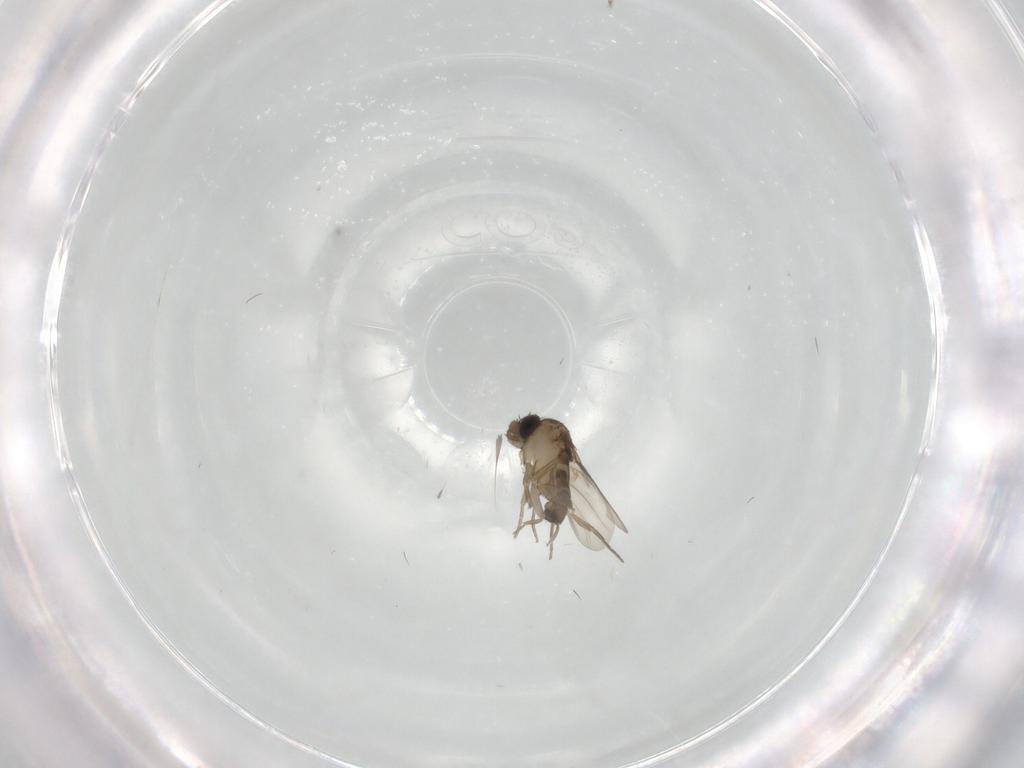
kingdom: Animalia
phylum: Arthropoda
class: Insecta
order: Diptera
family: Phoridae
